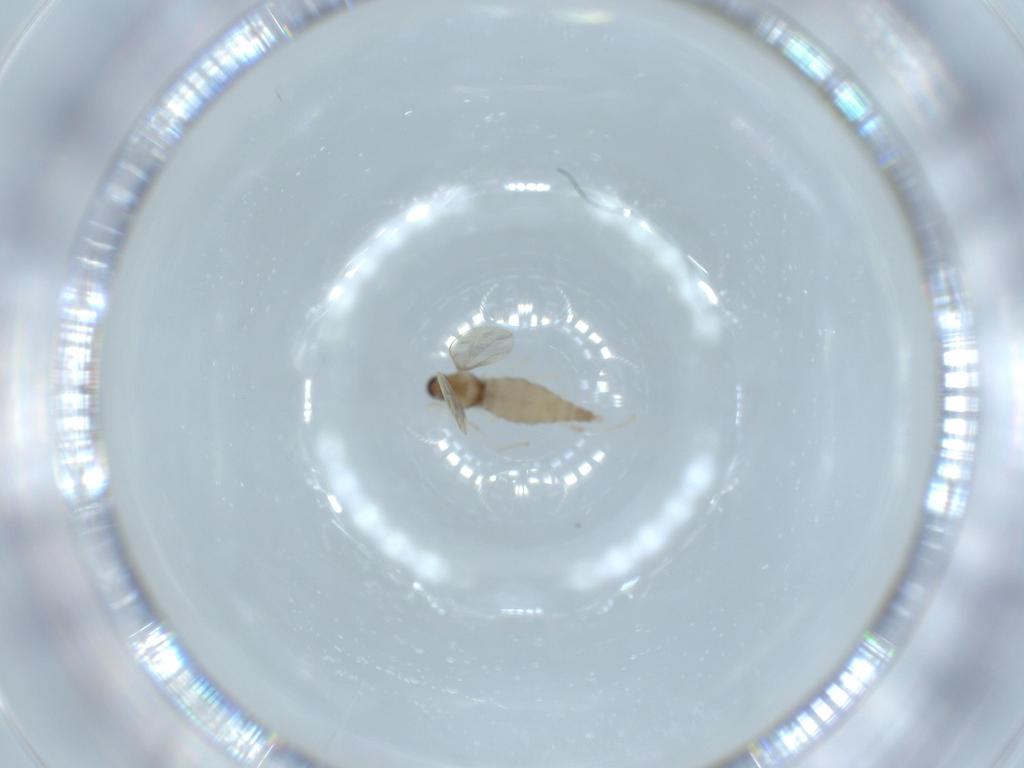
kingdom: Animalia
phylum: Arthropoda
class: Insecta
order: Diptera
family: Cecidomyiidae
